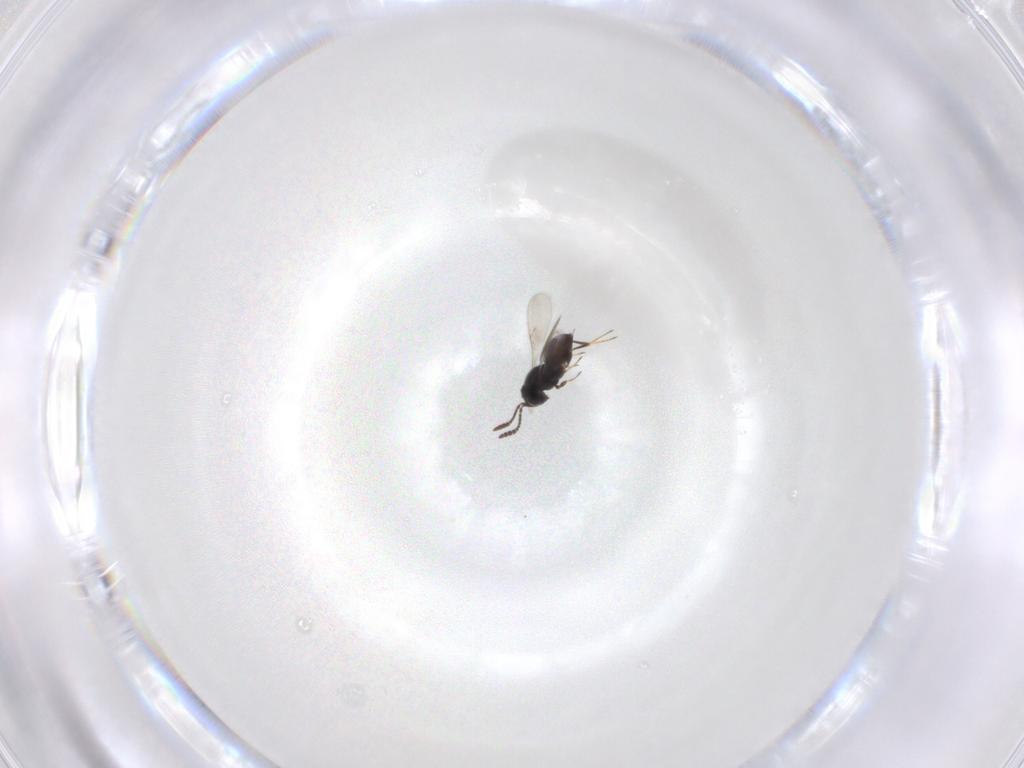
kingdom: Animalia
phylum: Arthropoda
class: Insecta
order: Hymenoptera
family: Scelionidae
